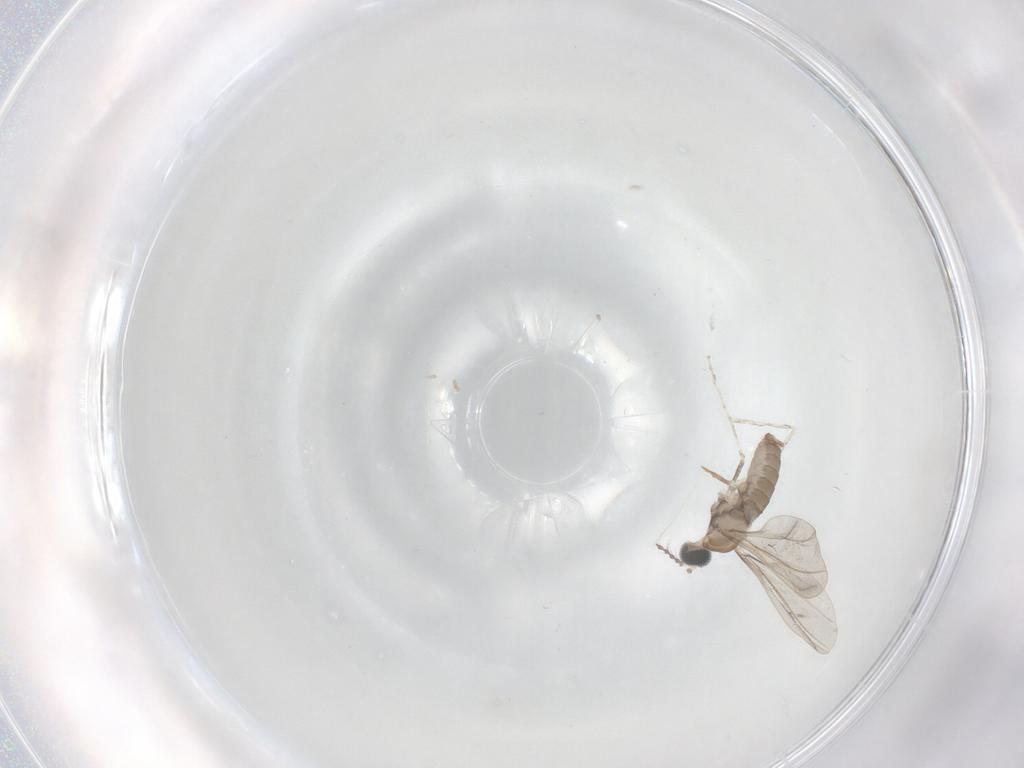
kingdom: Animalia
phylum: Arthropoda
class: Insecta
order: Diptera
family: Cecidomyiidae
